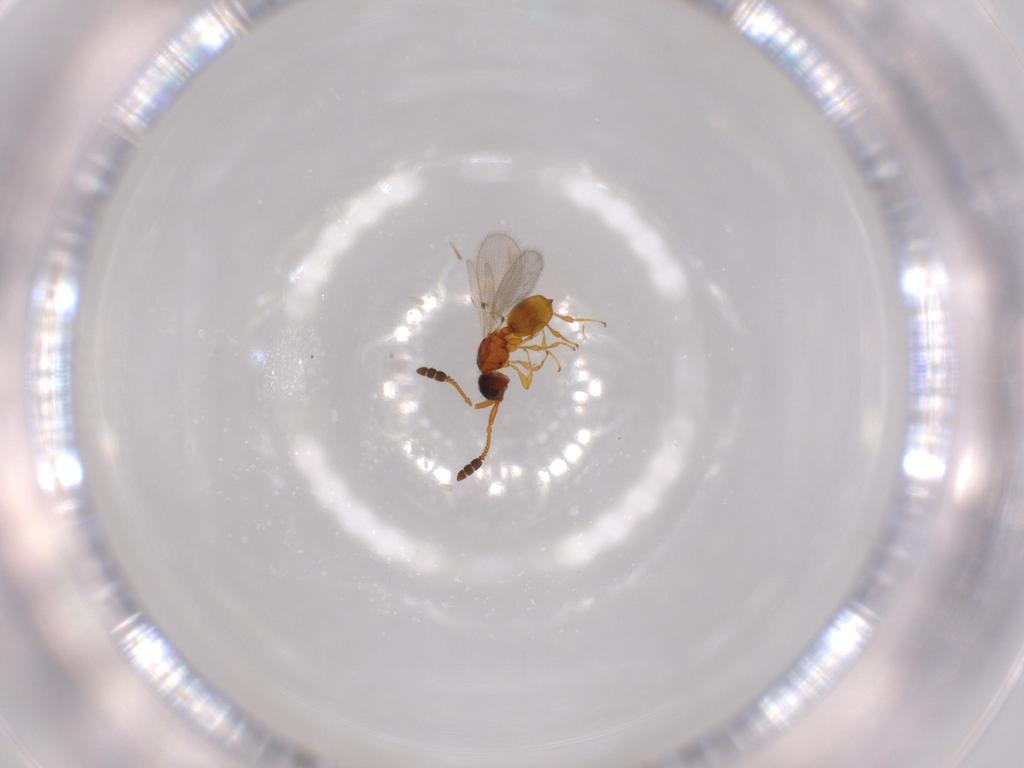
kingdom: Animalia
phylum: Arthropoda
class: Insecta
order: Hymenoptera
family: Diapriidae
